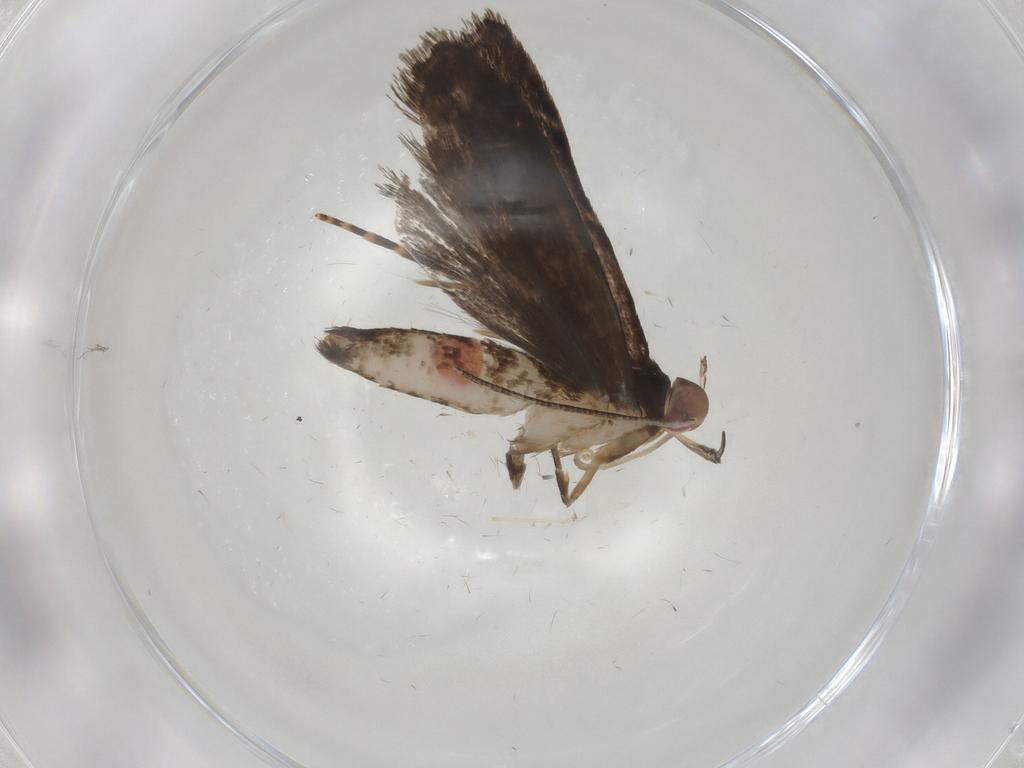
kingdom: Animalia
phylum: Arthropoda
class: Insecta
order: Lepidoptera
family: Gelechiidae
